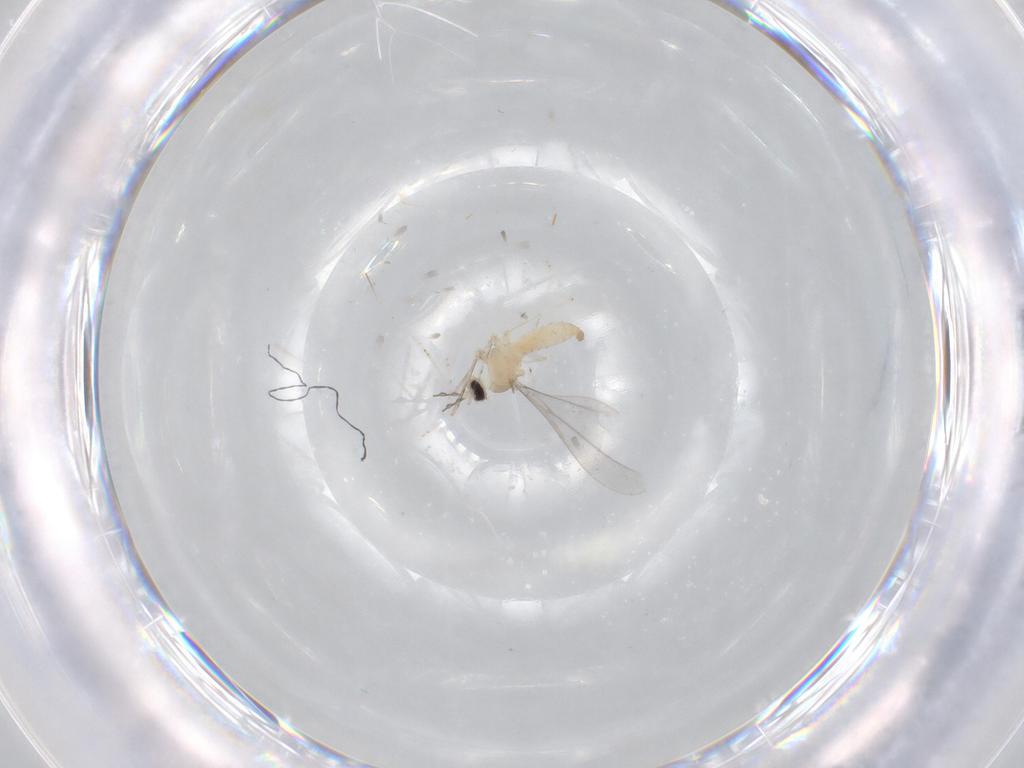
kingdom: Animalia
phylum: Arthropoda
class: Insecta
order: Diptera
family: Cecidomyiidae
